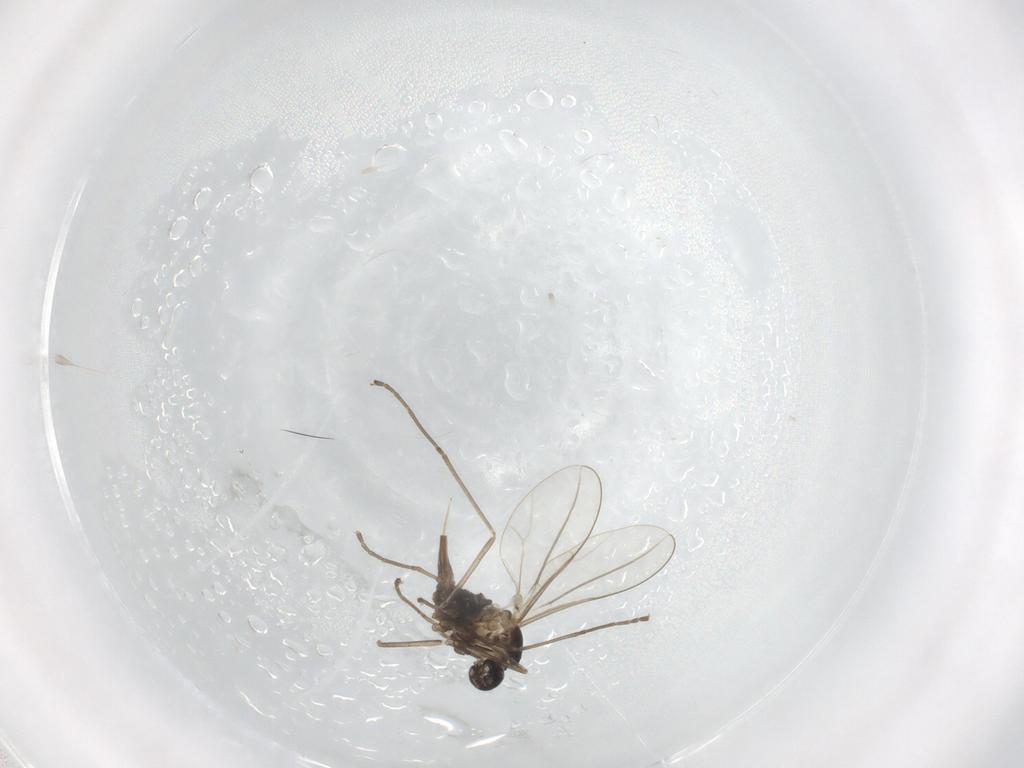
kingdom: Animalia
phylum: Arthropoda
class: Insecta
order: Diptera
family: Cecidomyiidae
